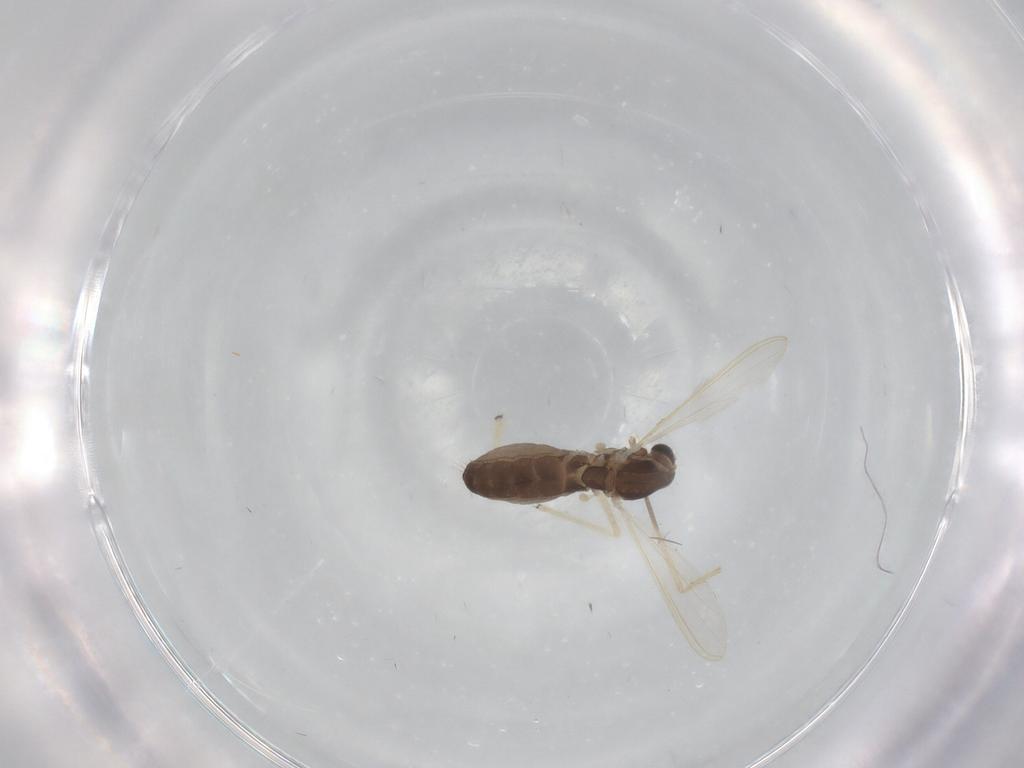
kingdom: Animalia
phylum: Arthropoda
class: Insecta
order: Diptera
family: Chironomidae
